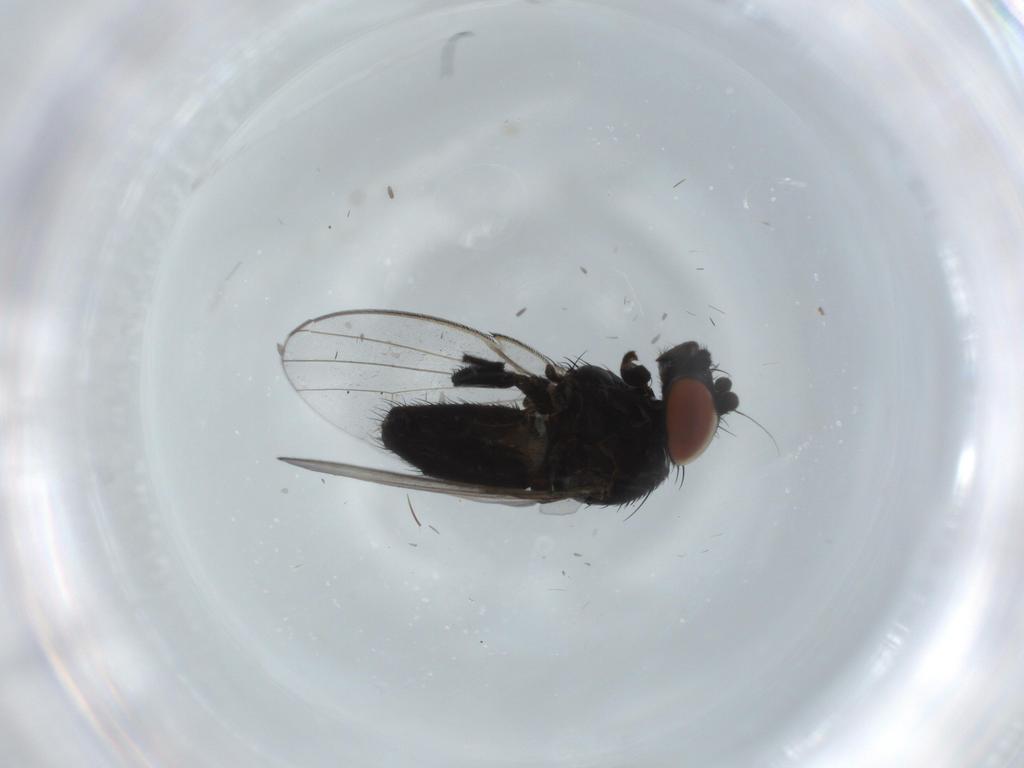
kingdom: Animalia
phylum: Arthropoda
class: Insecta
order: Diptera
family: Milichiidae
